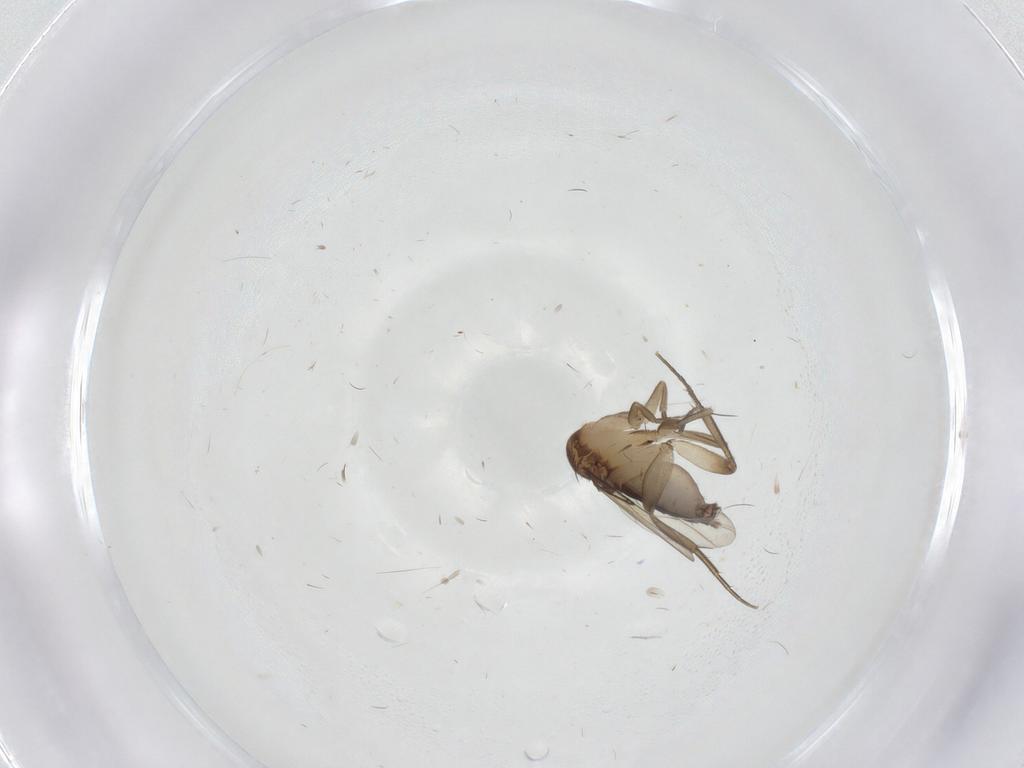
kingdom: Animalia
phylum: Arthropoda
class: Insecta
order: Diptera
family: Phoridae
